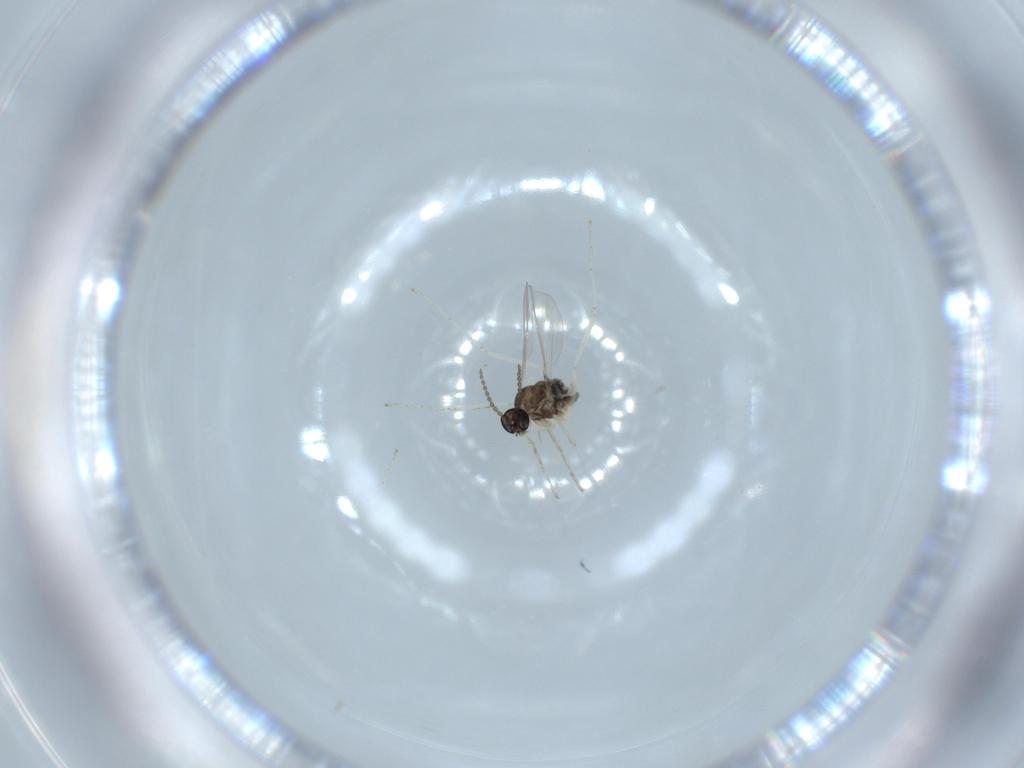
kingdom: Animalia
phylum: Arthropoda
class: Insecta
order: Diptera
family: Cecidomyiidae
